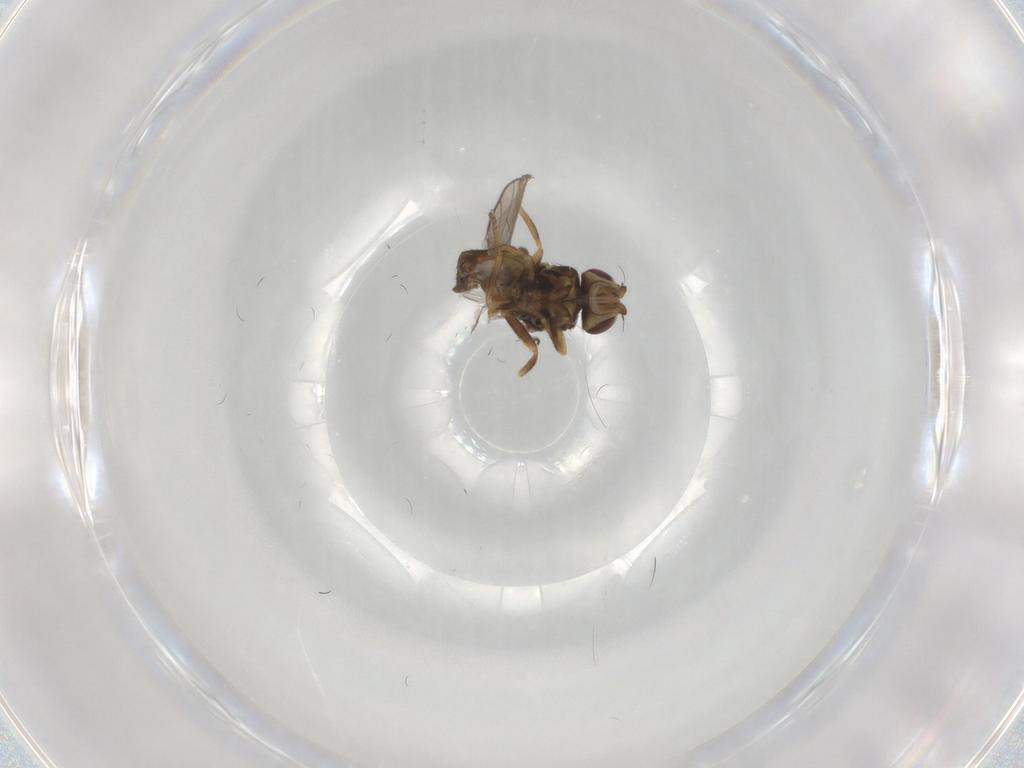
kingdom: Animalia
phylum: Arthropoda
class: Insecta
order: Diptera
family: Chloropidae
